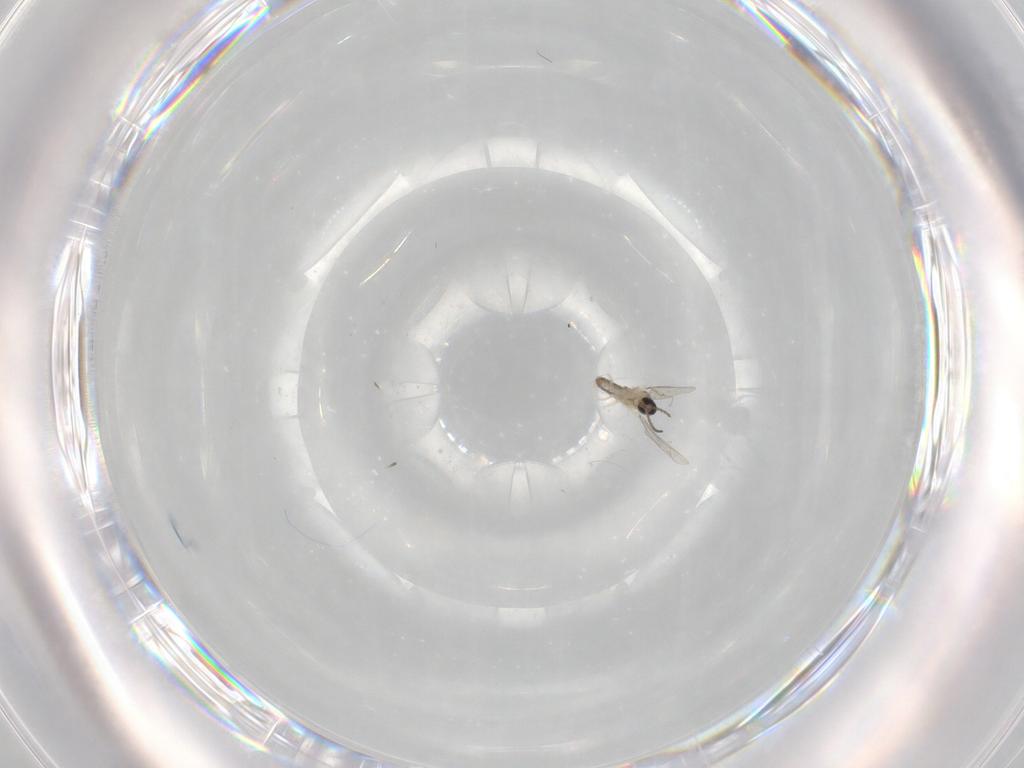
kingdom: Animalia
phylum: Arthropoda
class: Insecta
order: Diptera
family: Cecidomyiidae
